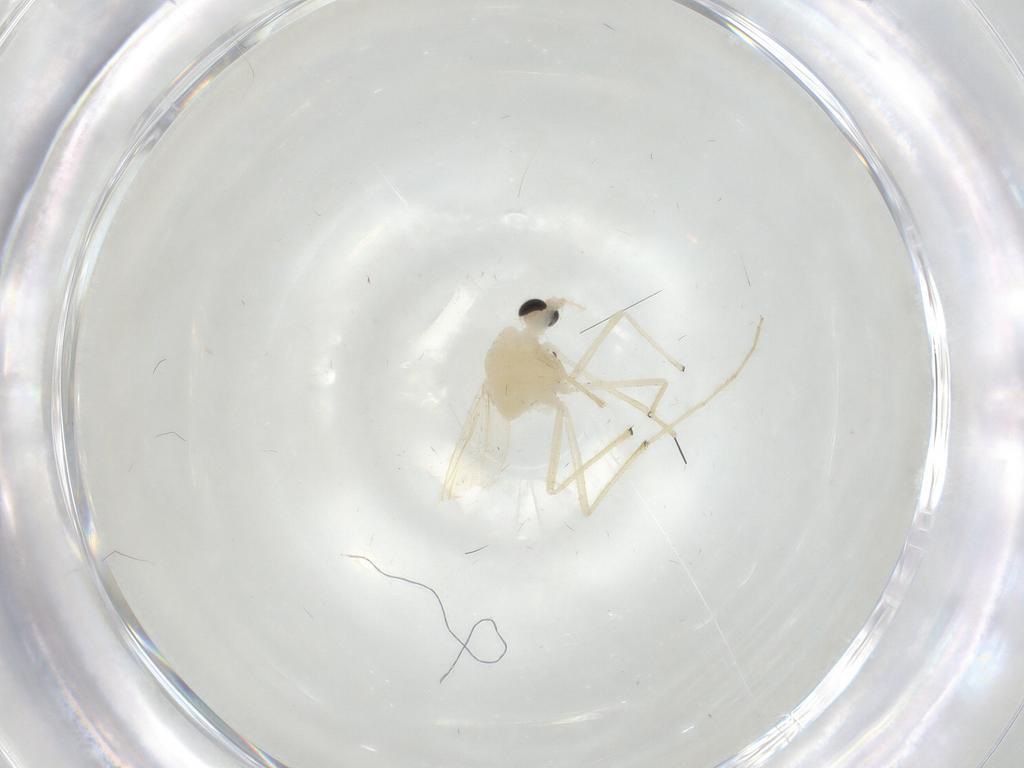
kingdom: Animalia
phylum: Arthropoda
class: Insecta
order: Diptera
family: Chironomidae
